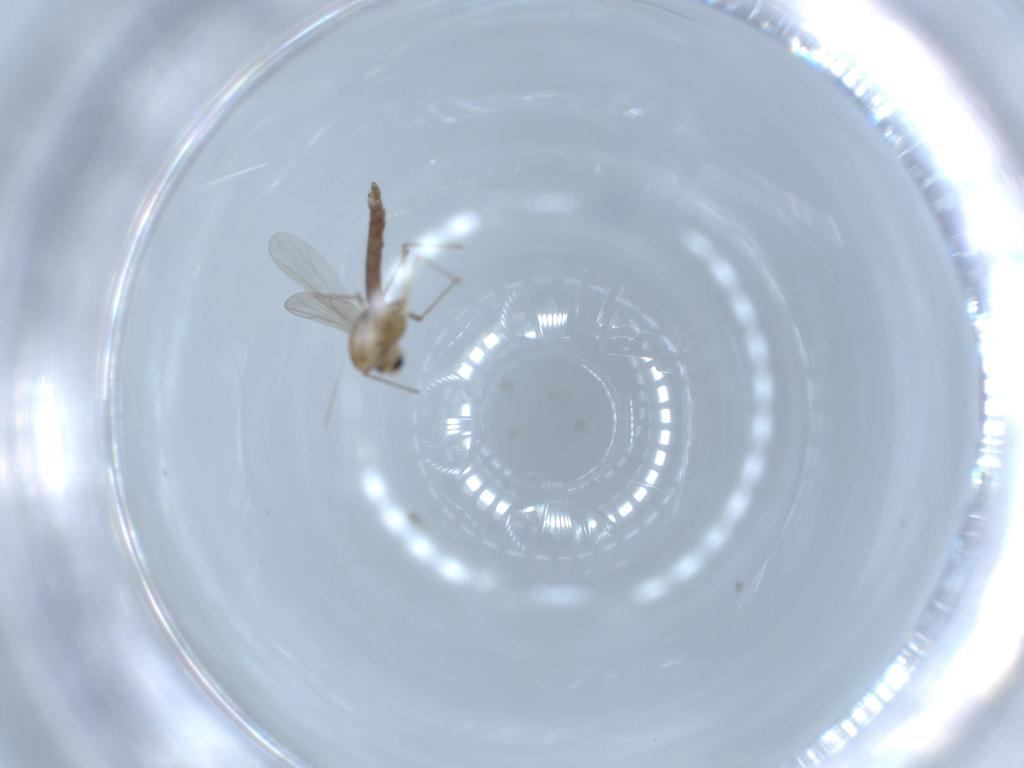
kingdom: Animalia
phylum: Arthropoda
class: Insecta
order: Diptera
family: Chironomidae
